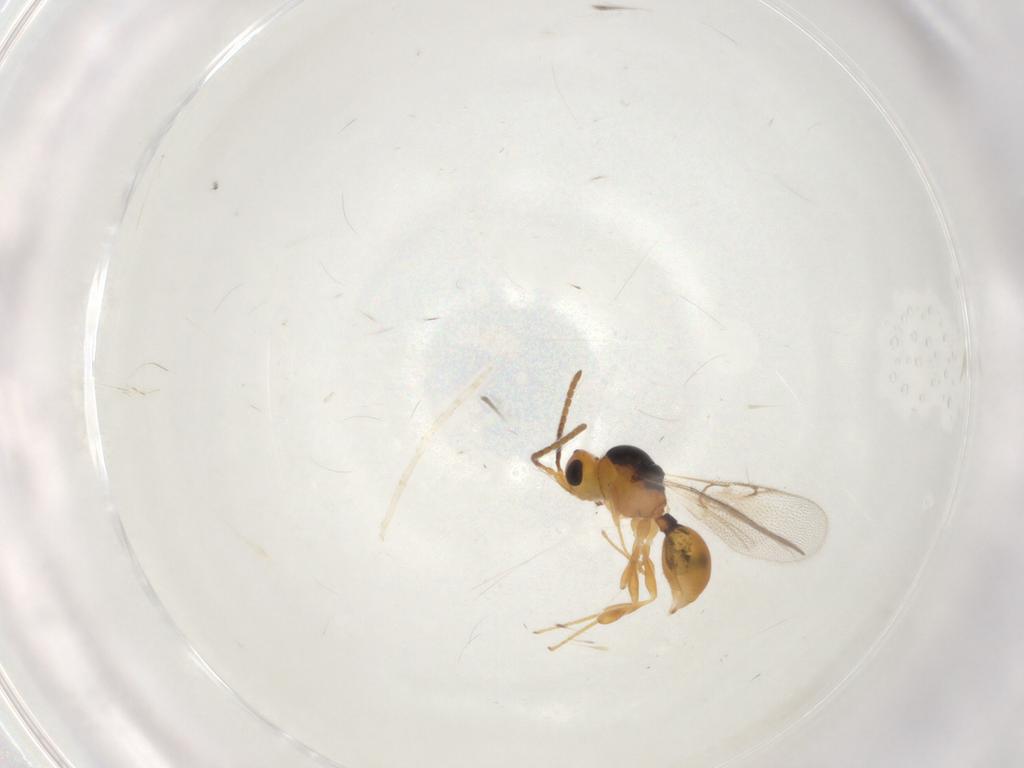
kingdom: Animalia
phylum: Arthropoda
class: Insecta
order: Hymenoptera
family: Diapriidae
